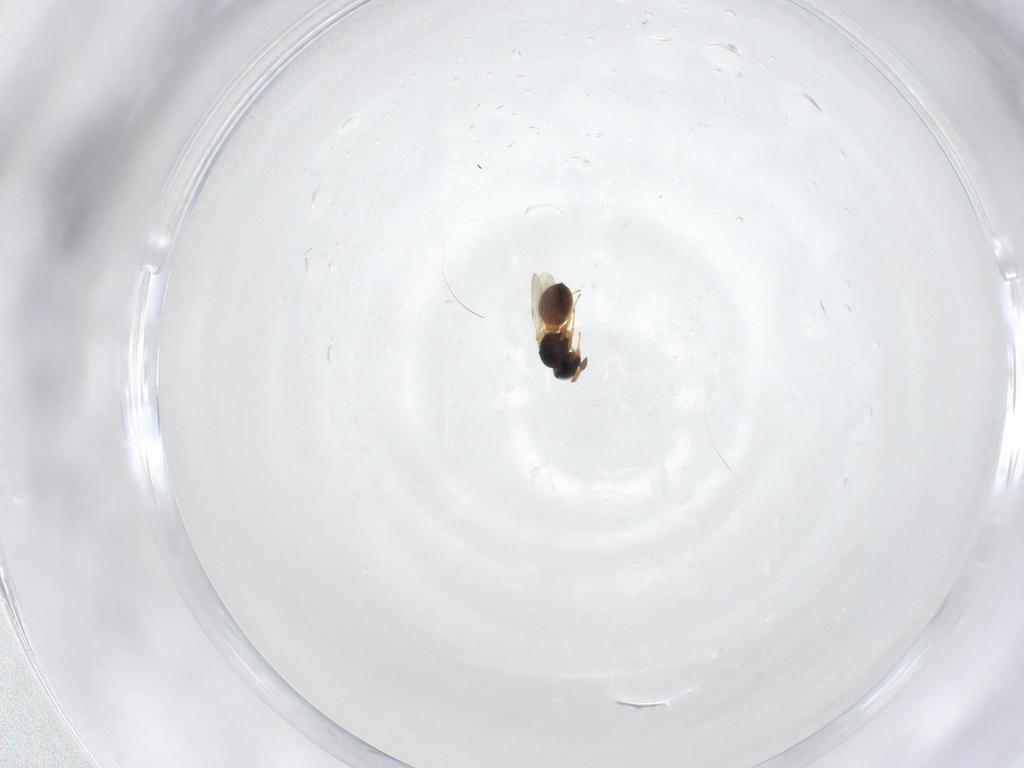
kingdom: Animalia
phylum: Arthropoda
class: Insecta
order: Hymenoptera
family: Scelionidae
